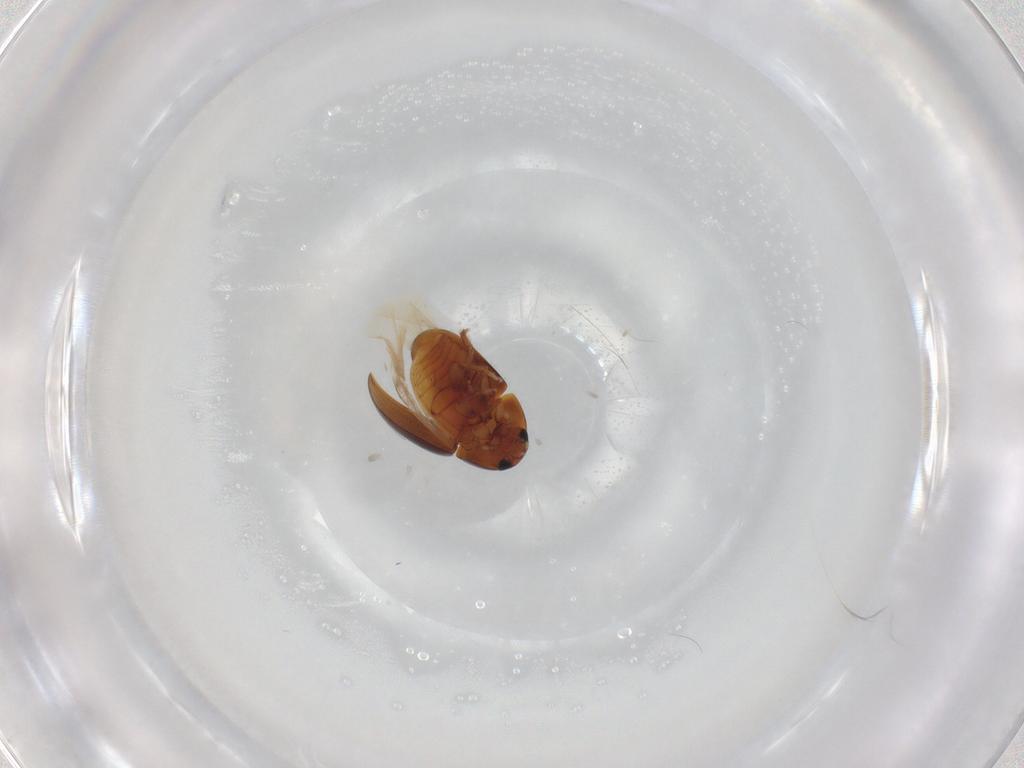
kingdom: Animalia
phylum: Arthropoda
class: Insecta
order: Coleoptera
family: Phalacridae
